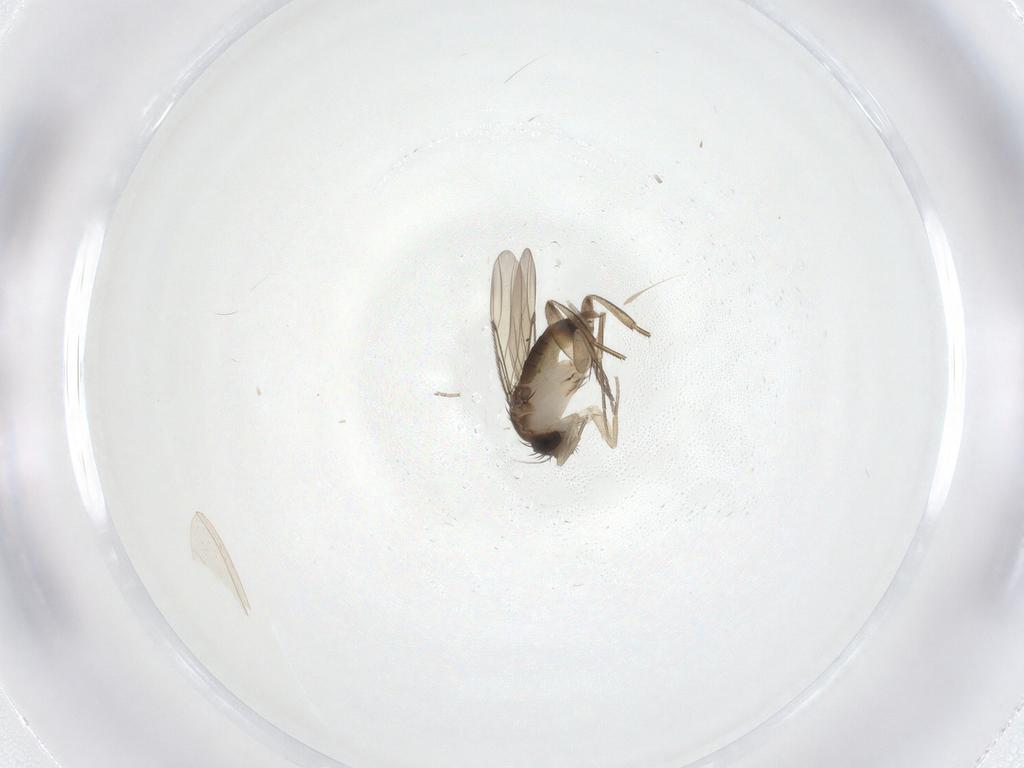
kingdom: Animalia
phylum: Arthropoda
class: Insecta
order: Diptera
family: Phoridae
